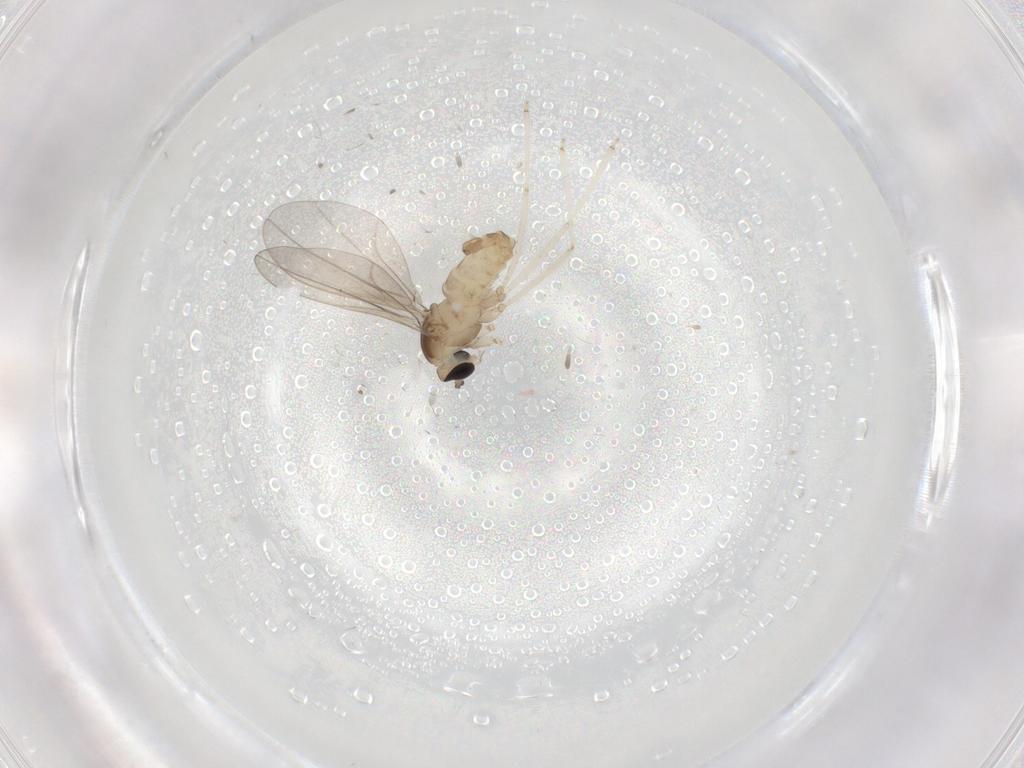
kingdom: Animalia
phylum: Arthropoda
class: Insecta
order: Diptera
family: Cecidomyiidae
